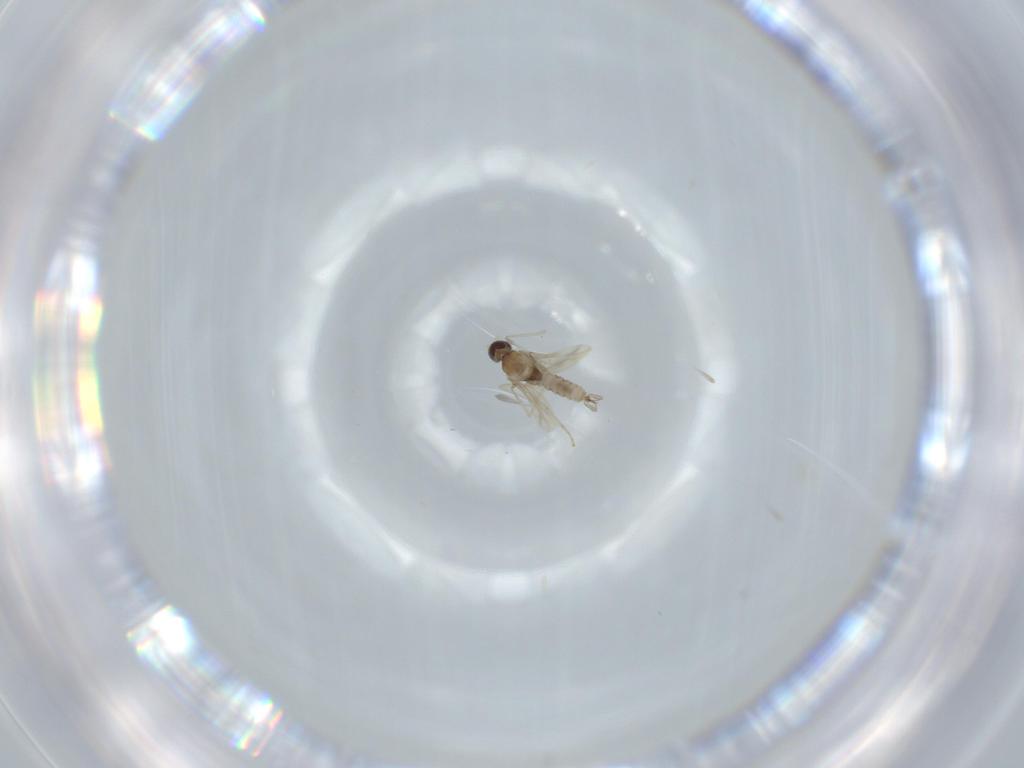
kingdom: Animalia
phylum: Arthropoda
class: Insecta
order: Diptera
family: Cecidomyiidae
